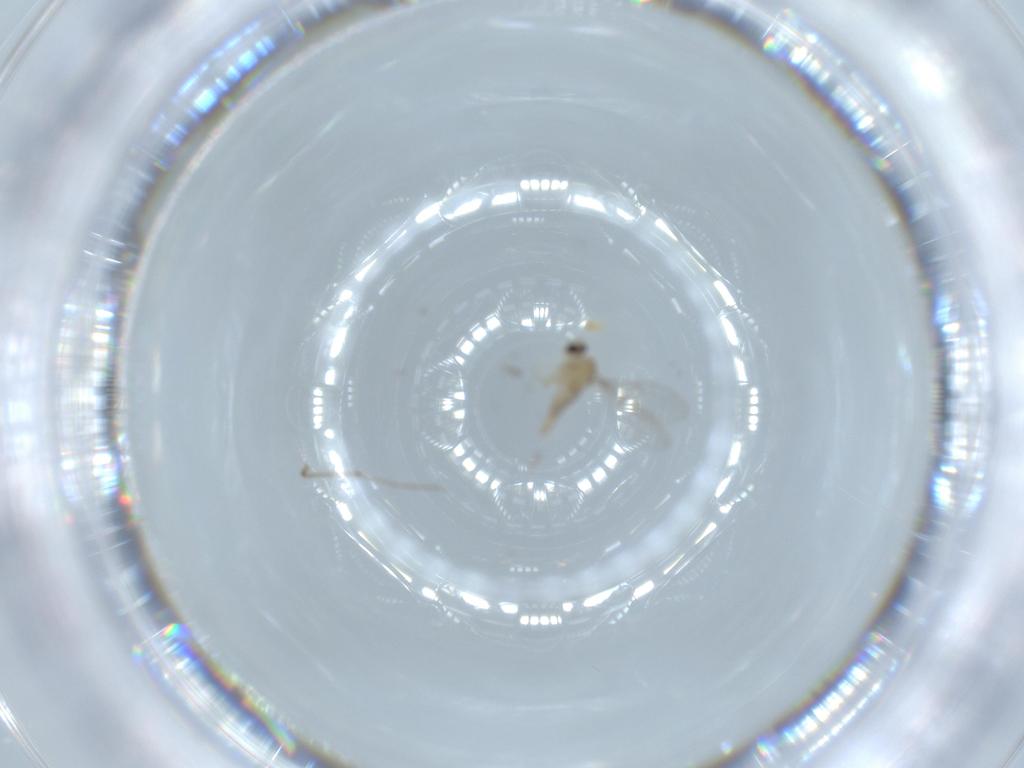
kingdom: Animalia
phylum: Arthropoda
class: Insecta
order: Diptera
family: Cecidomyiidae
